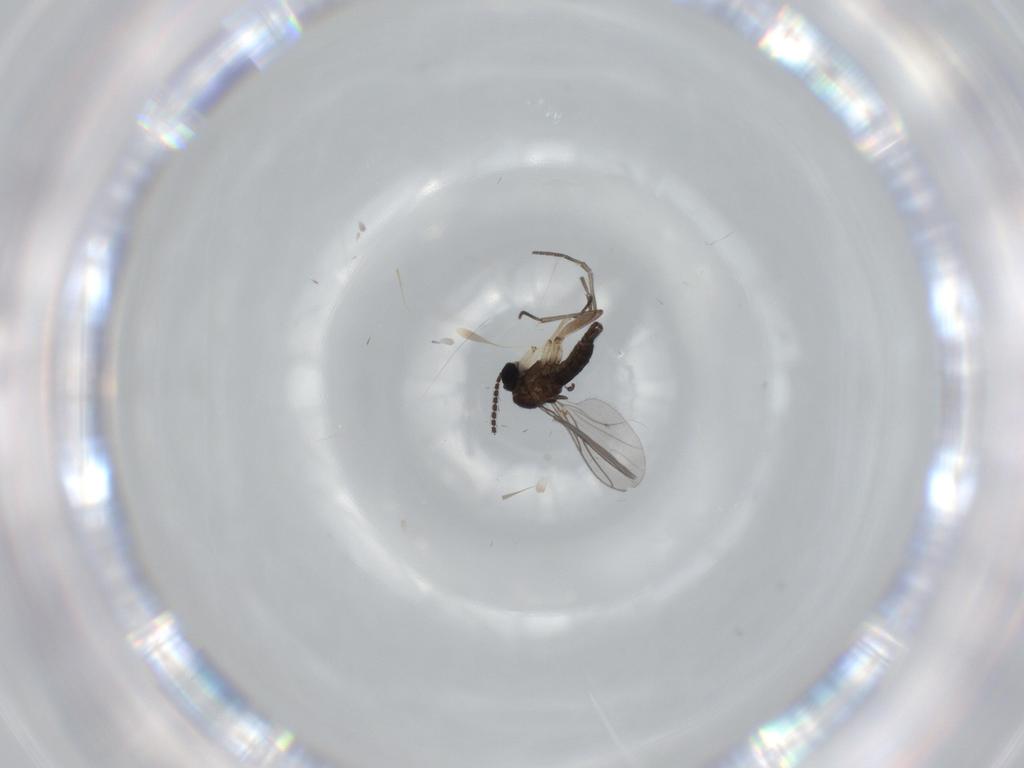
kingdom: Animalia
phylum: Arthropoda
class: Insecta
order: Diptera
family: Sciaridae
